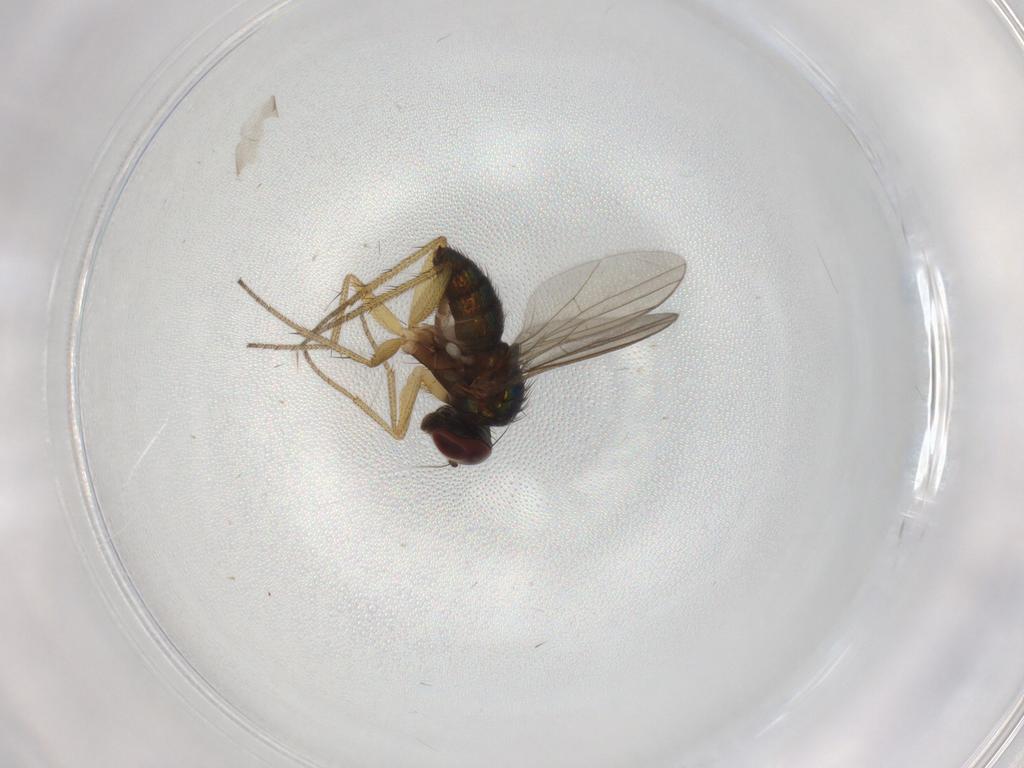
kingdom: Animalia
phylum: Arthropoda
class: Insecta
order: Diptera
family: Dolichopodidae
